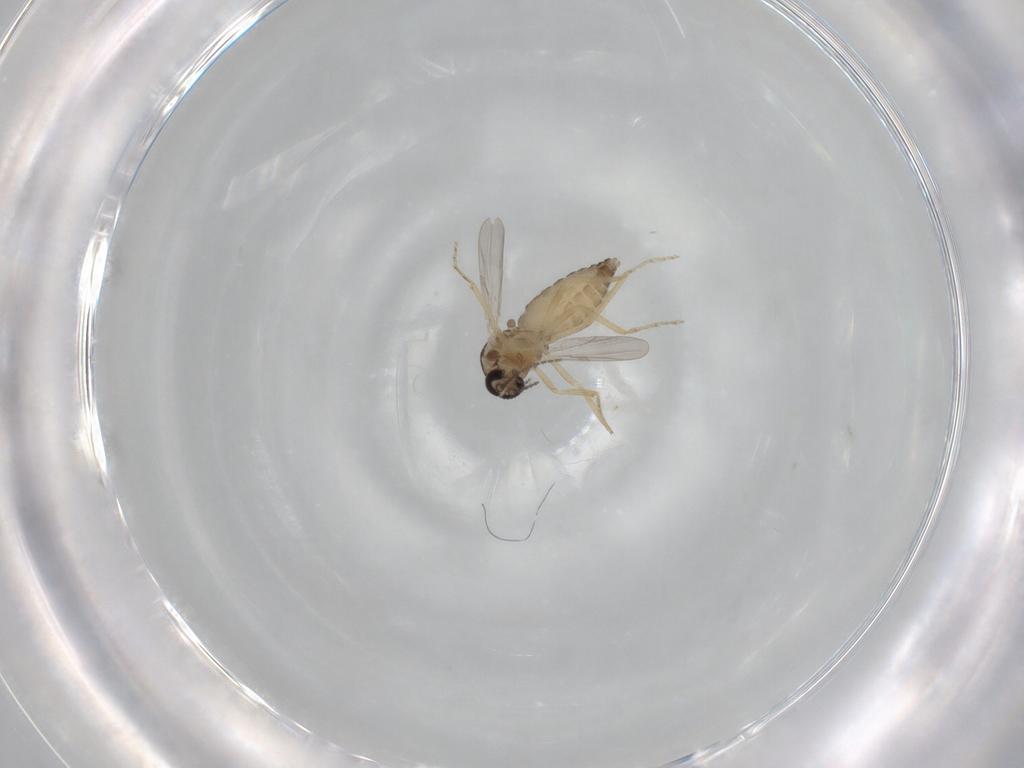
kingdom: Animalia
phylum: Arthropoda
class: Insecta
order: Diptera
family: Ceratopogonidae
